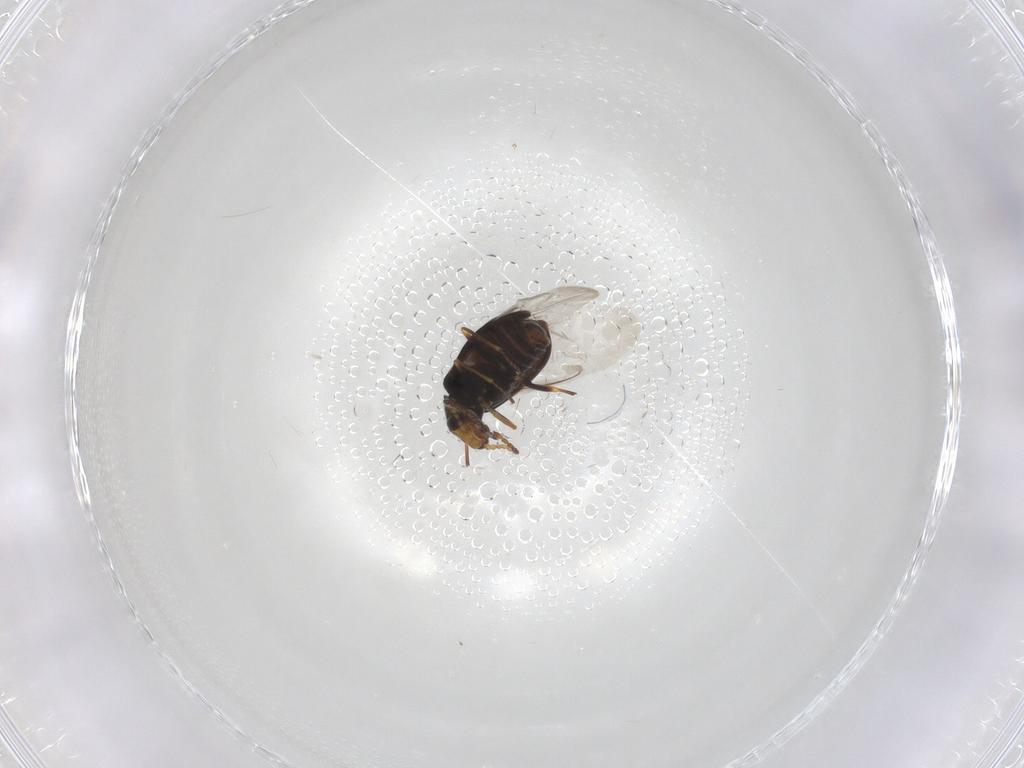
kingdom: Animalia
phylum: Arthropoda
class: Insecta
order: Coleoptera
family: Melyridae
